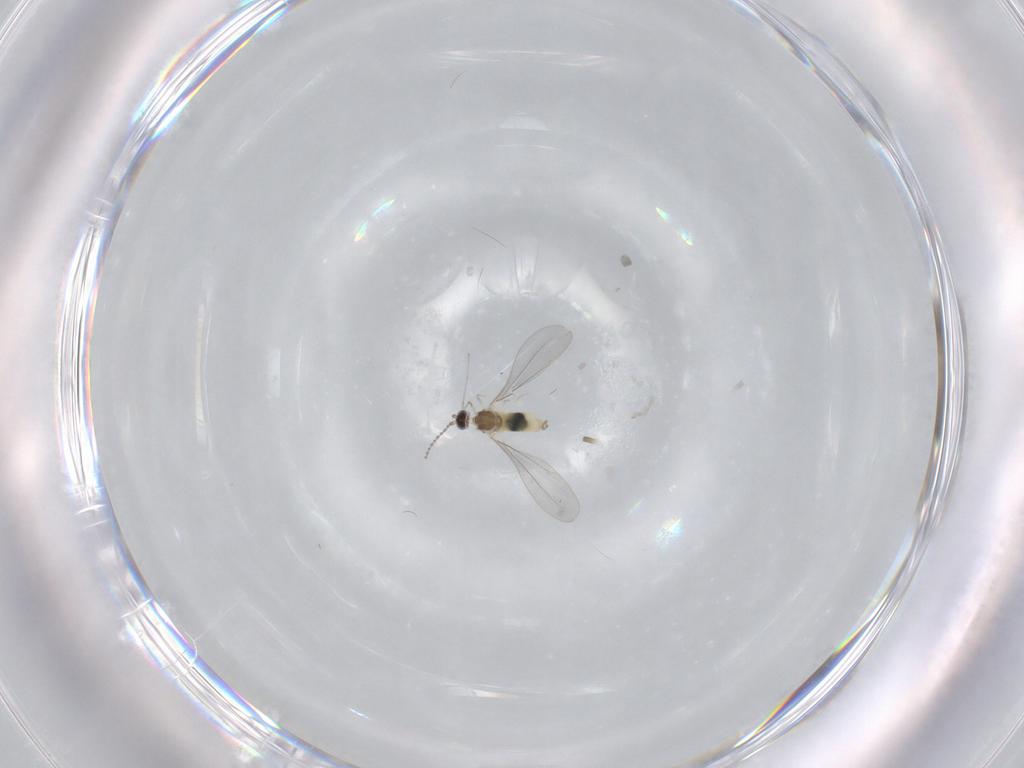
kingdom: Animalia
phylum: Arthropoda
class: Insecta
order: Diptera
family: Cecidomyiidae
